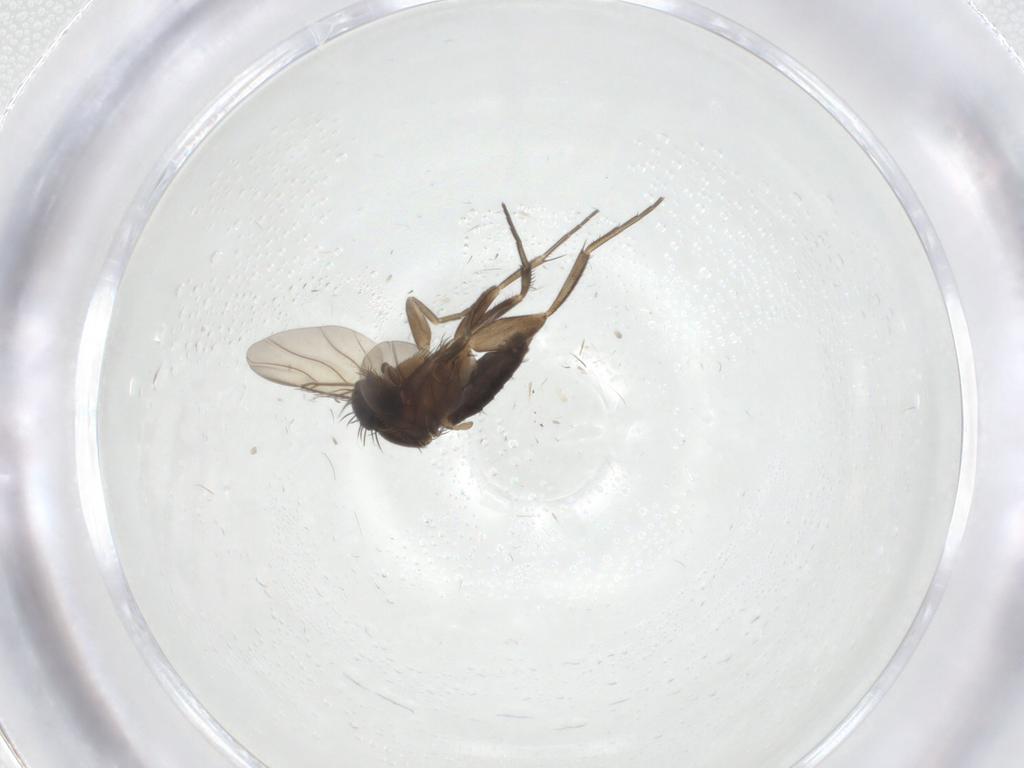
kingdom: Animalia
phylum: Arthropoda
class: Insecta
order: Diptera
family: Phoridae
